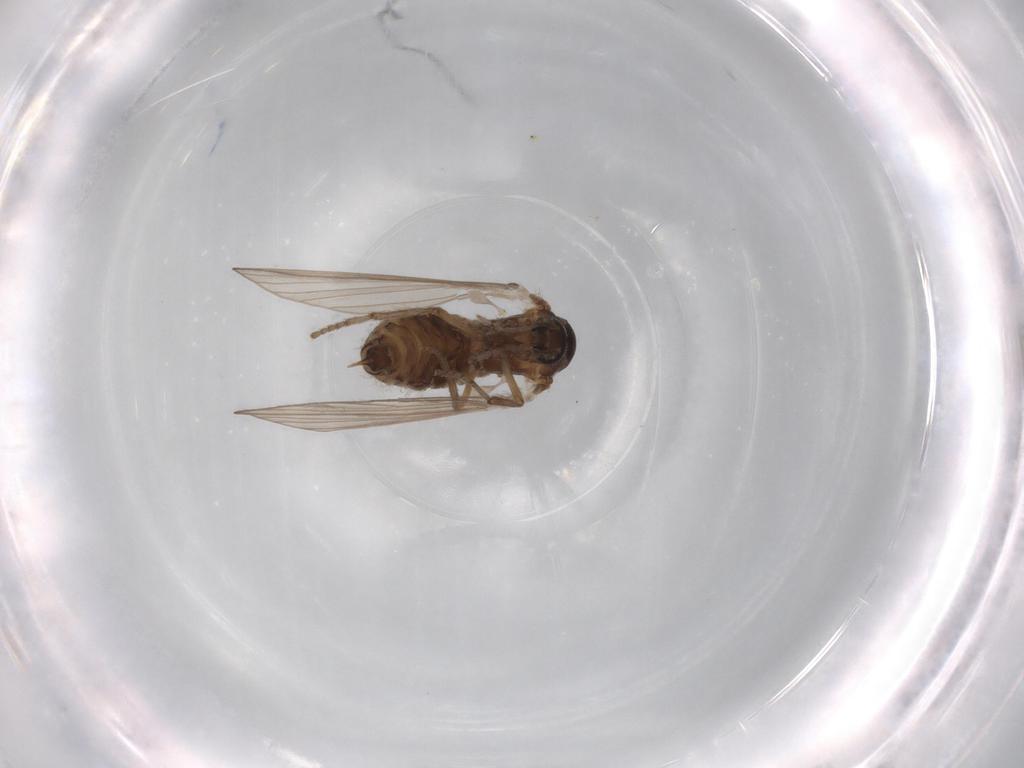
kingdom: Animalia
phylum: Arthropoda
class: Insecta
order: Diptera
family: Psychodidae
